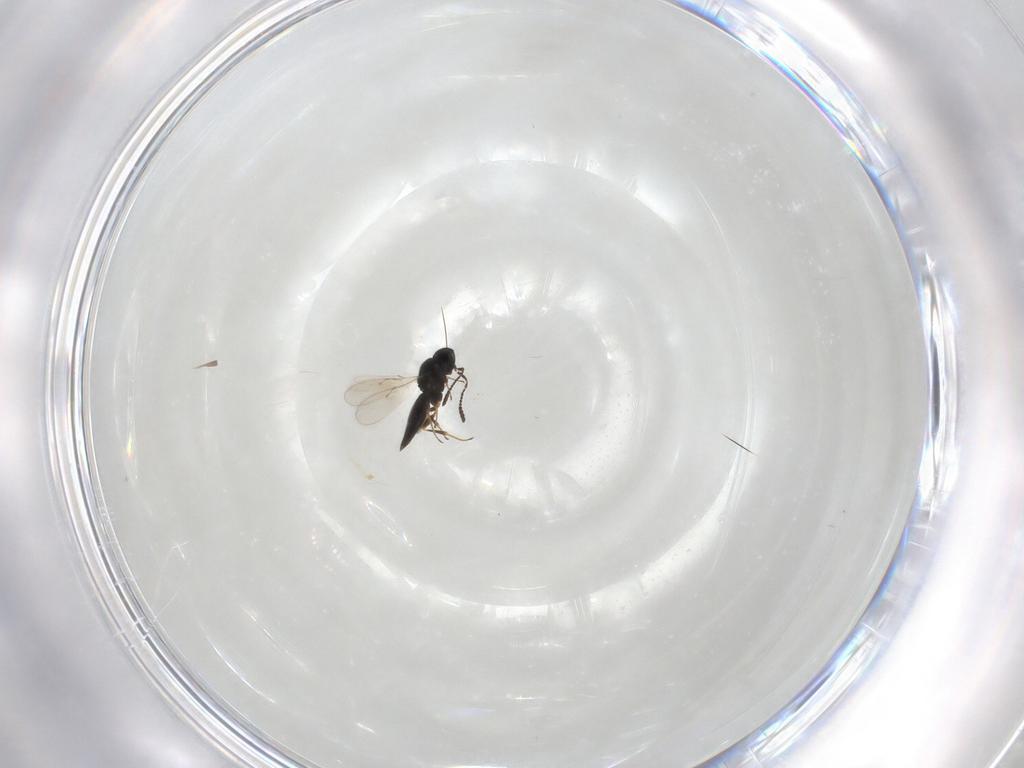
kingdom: Animalia
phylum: Arthropoda
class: Insecta
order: Hymenoptera
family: Scelionidae
